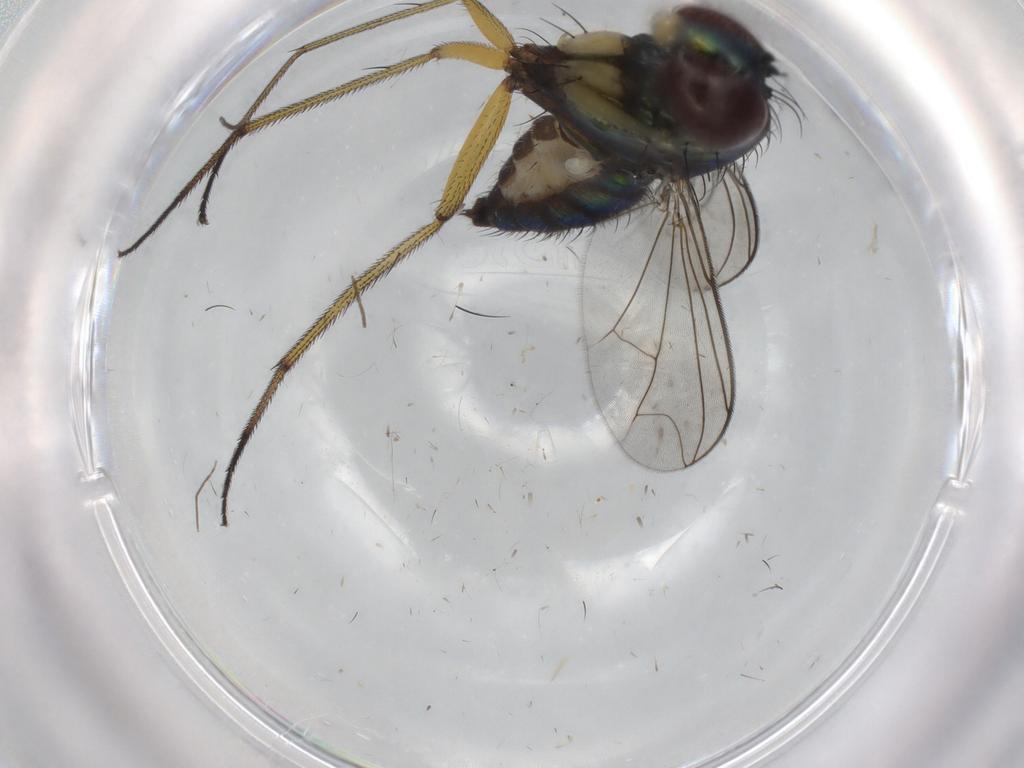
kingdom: Animalia
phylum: Arthropoda
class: Insecta
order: Diptera
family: Dolichopodidae
